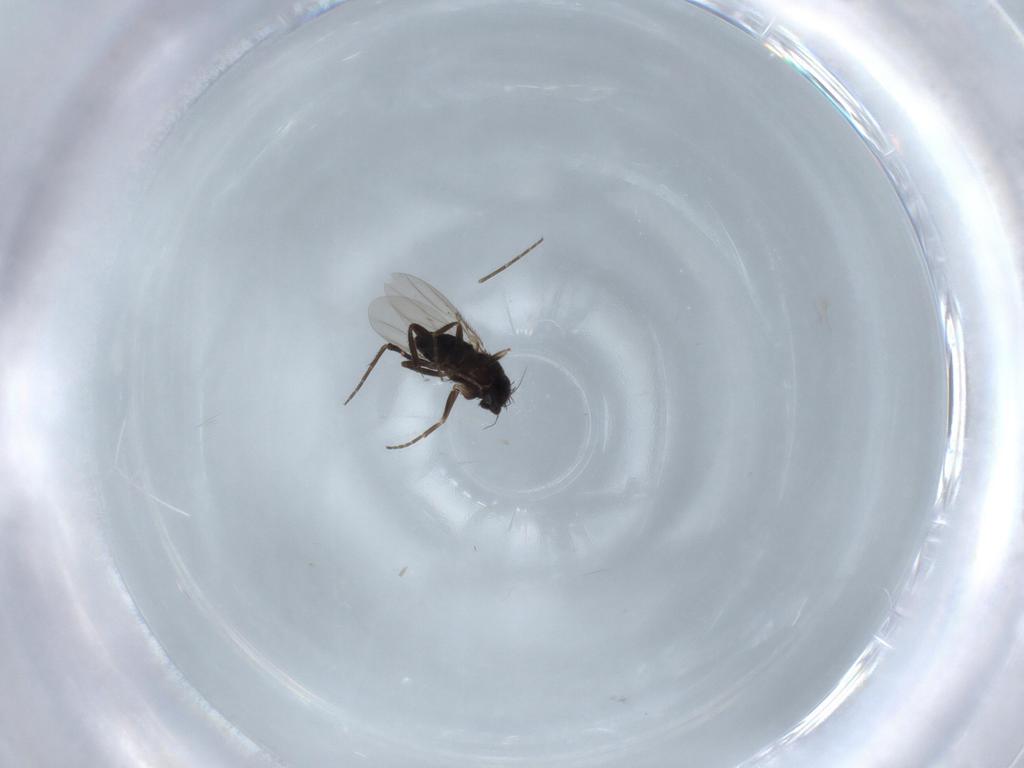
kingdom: Animalia
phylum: Arthropoda
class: Insecta
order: Diptera
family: Phoridae
